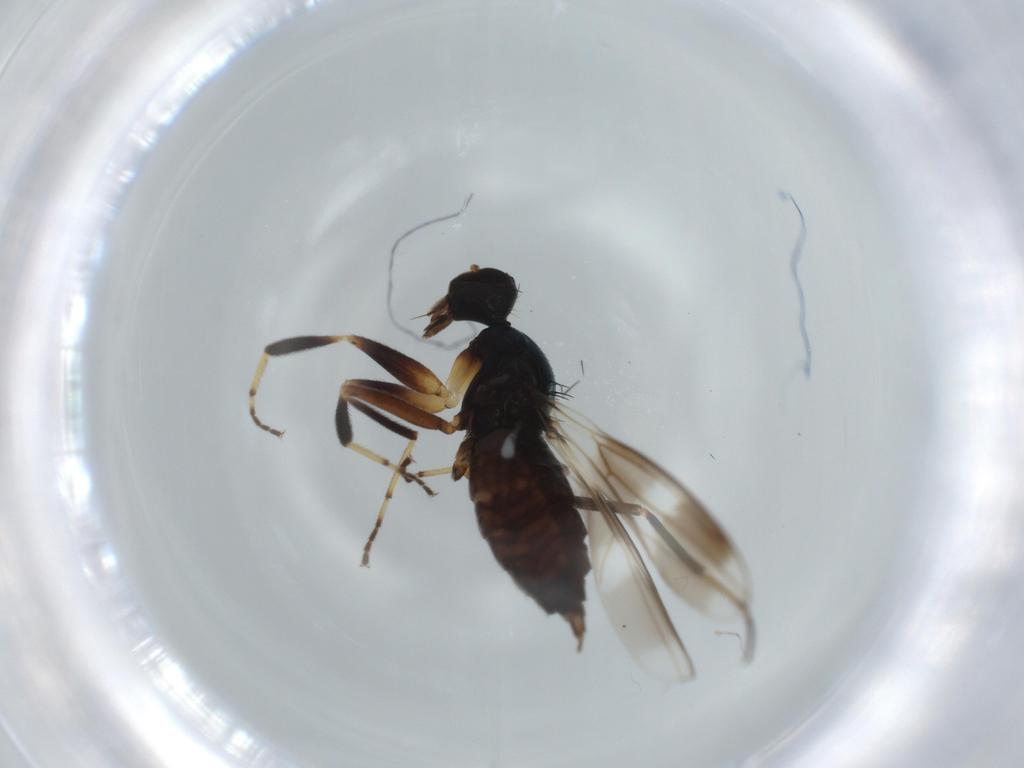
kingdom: Animalia
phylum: Arthropoda
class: Insecta
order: Diptera
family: Hybotidae
